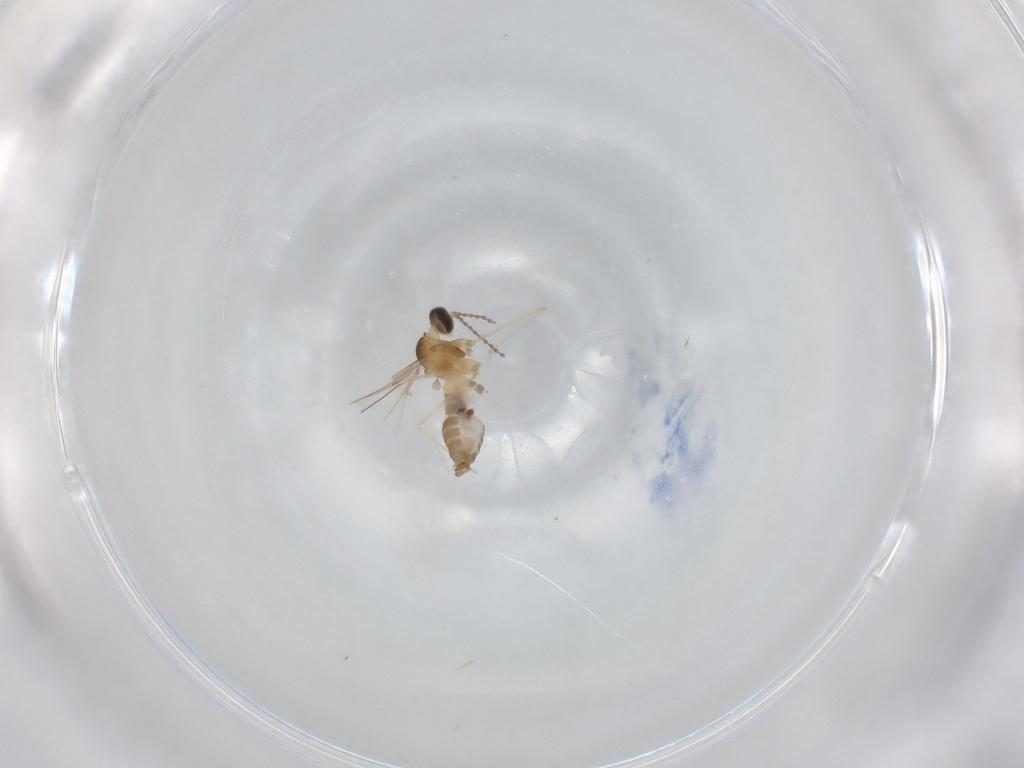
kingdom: Animalia
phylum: Arthropoda
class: Insecta
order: Diptera
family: Cecidomyiidae
